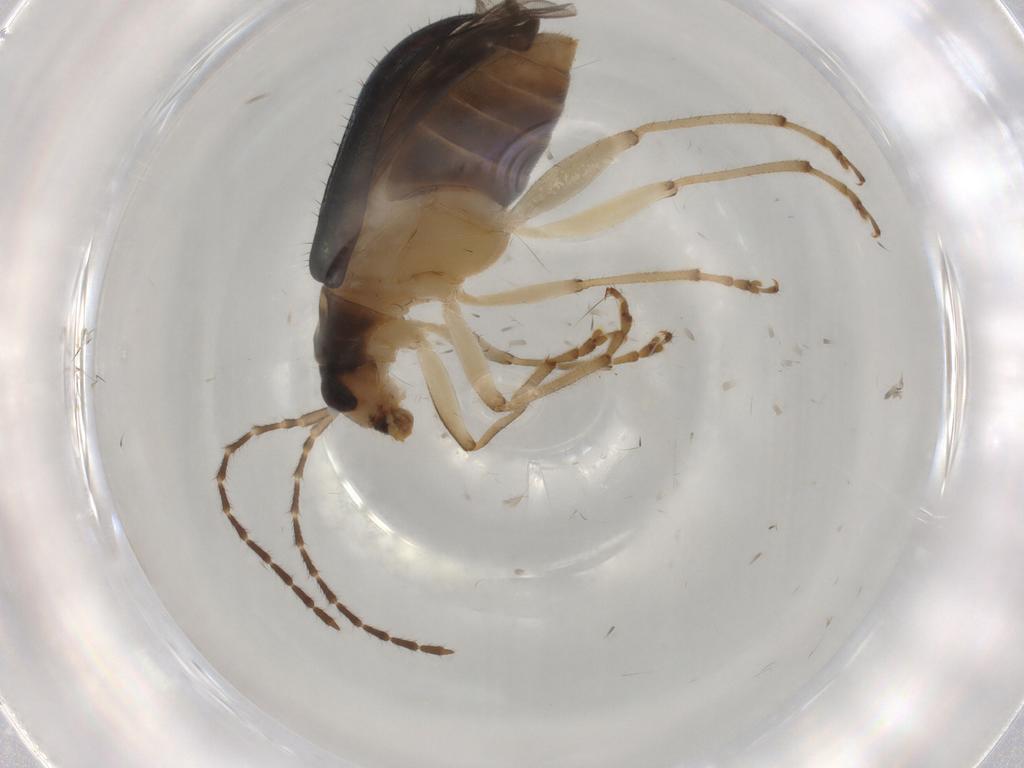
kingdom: Animalia
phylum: Arthropoda
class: Insecta
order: Coleoptera
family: Chrysomelidae
